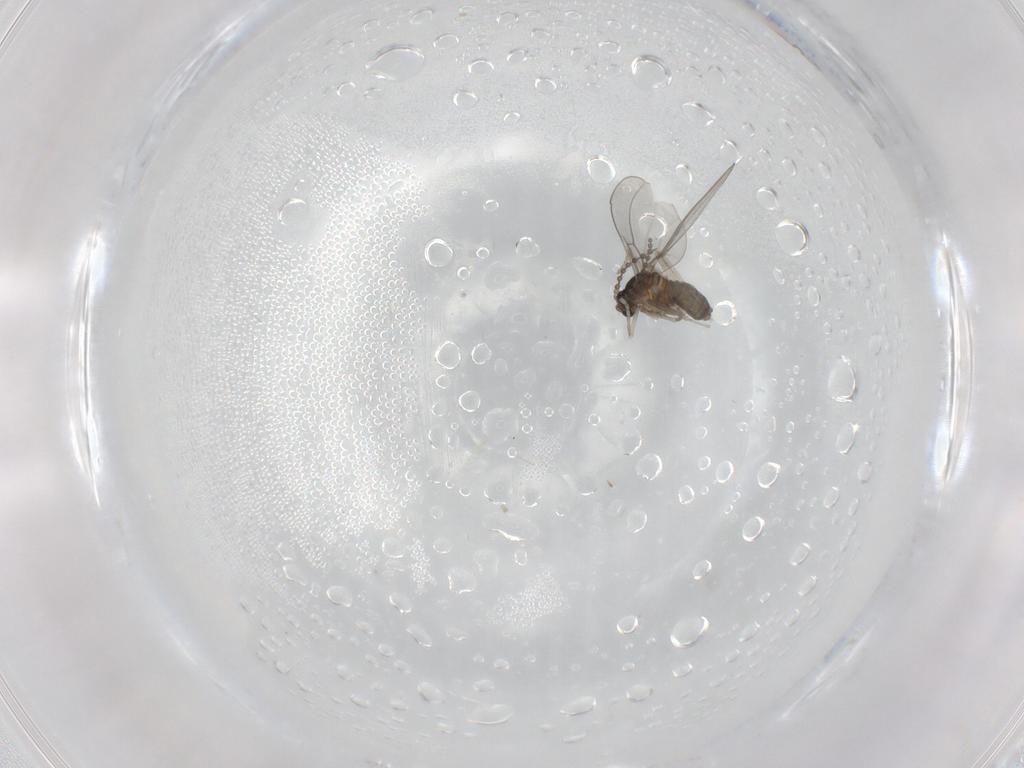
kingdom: Animalia
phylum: Arthropoda
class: Insecta
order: Diptera
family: Cecidomyiidae
